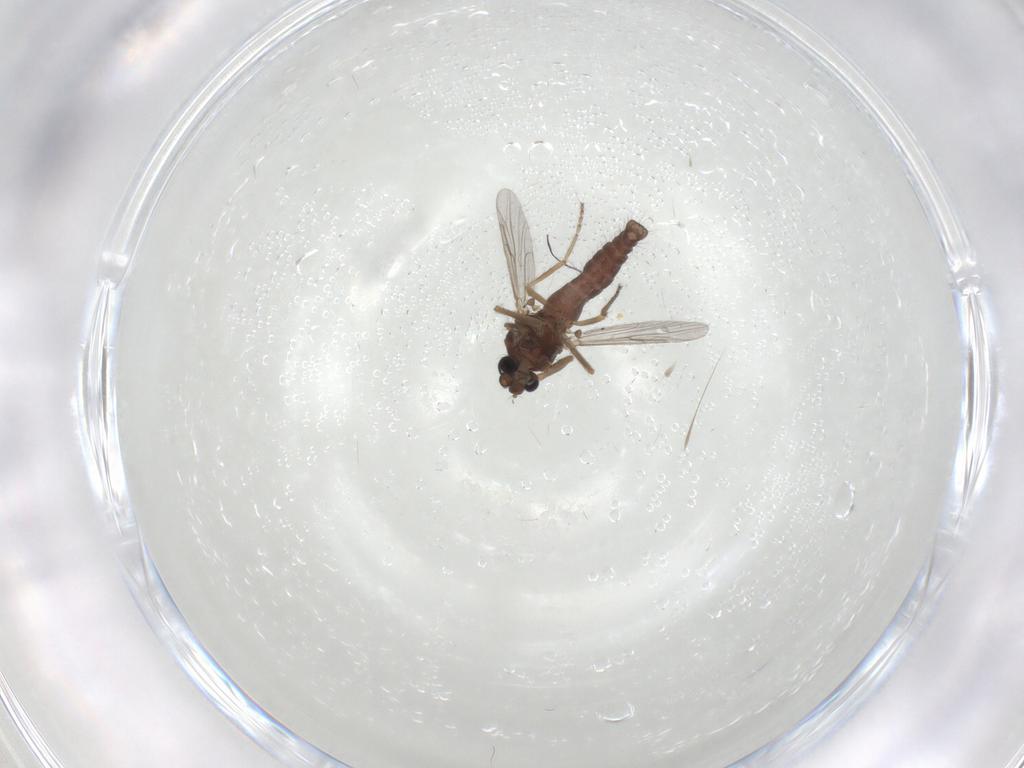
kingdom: Animalia
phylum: Arthropoda
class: Insecta
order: Diptera
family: Ceratopogonidae
